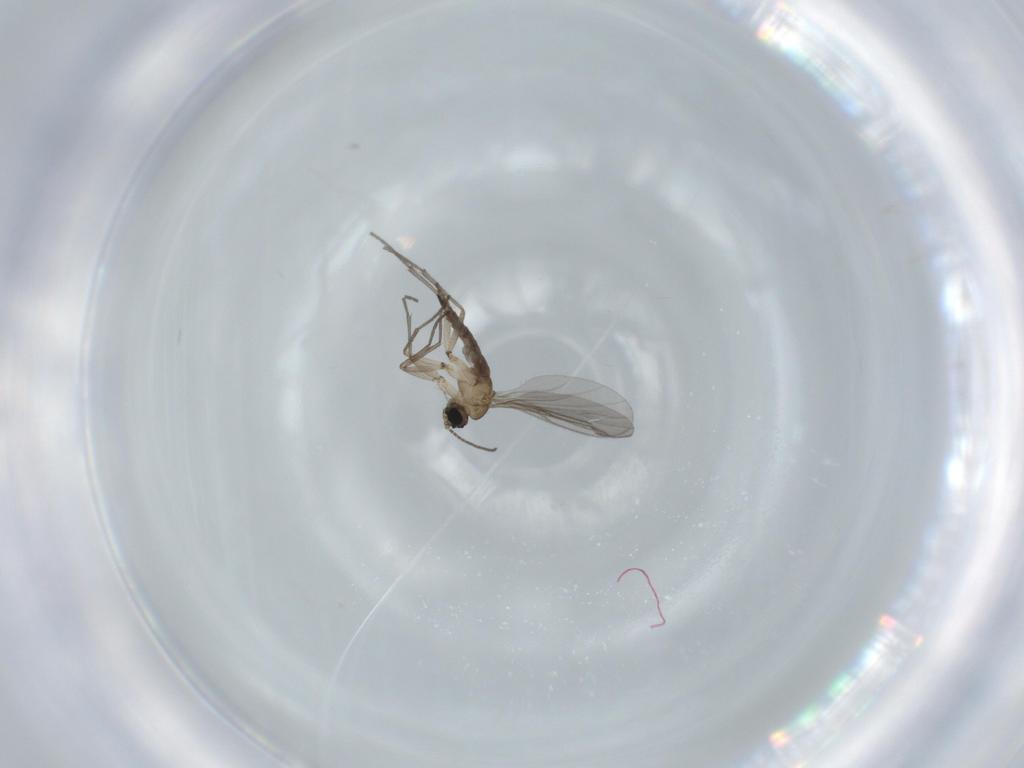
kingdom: Animalia
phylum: Arthropoda
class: Insecta
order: Diptera
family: Sciaridae
